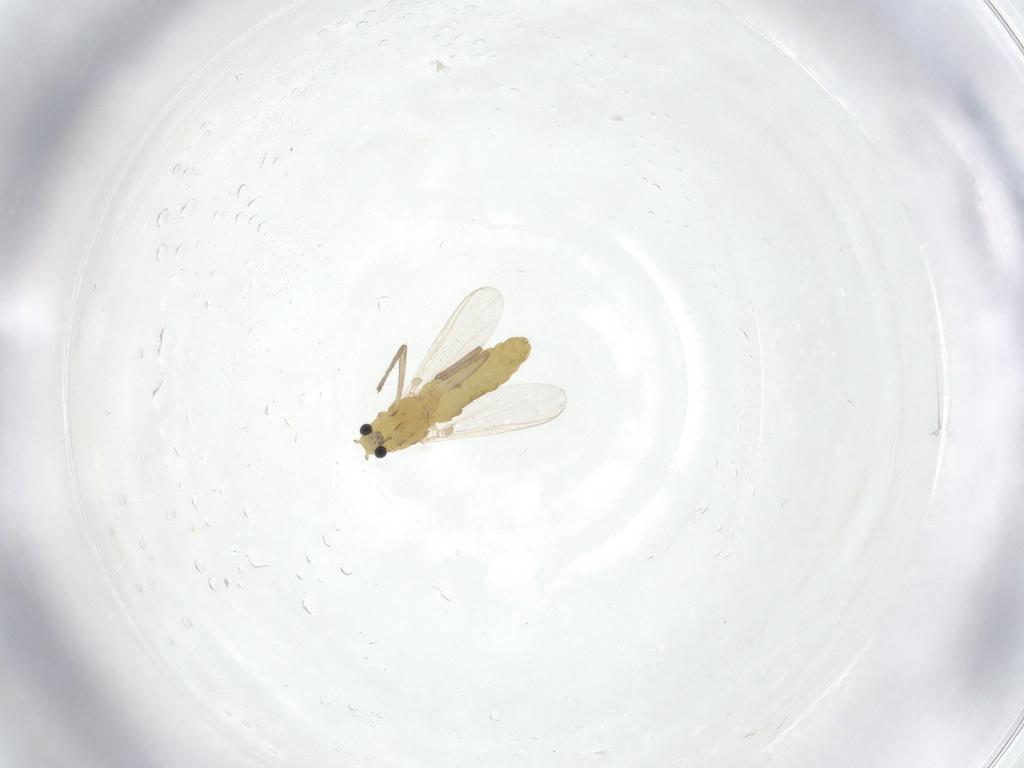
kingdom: Animalia
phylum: Arthropoda
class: Insecta
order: Diptera
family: Chironomidae
